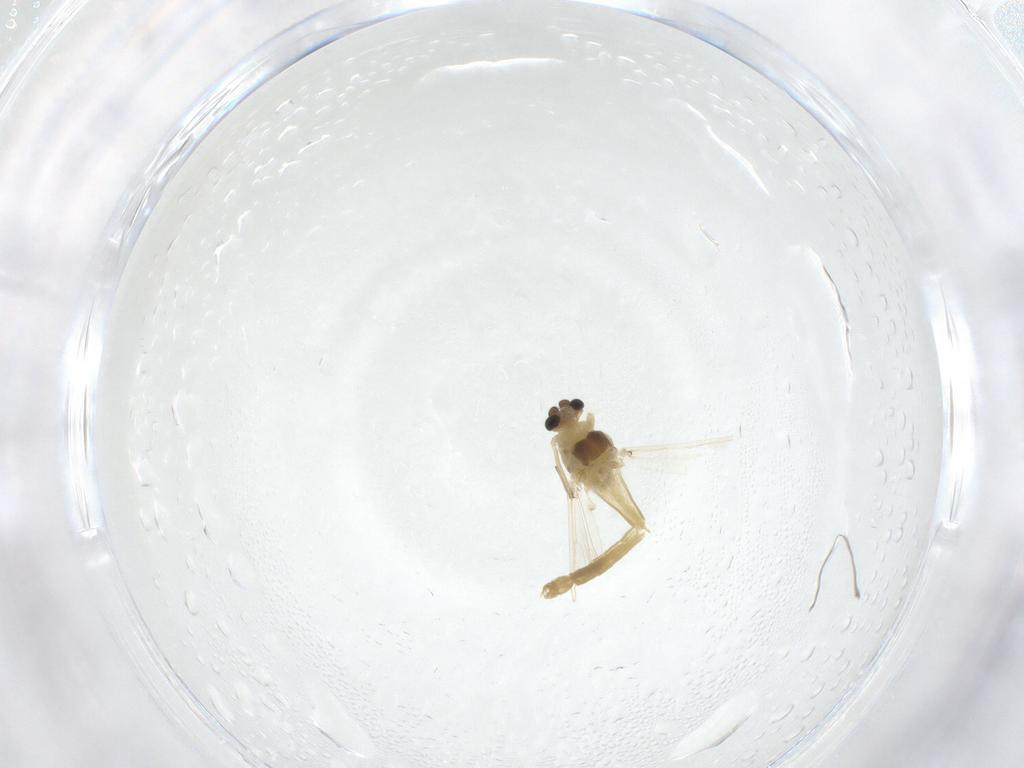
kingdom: Animalia
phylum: Arthropoda
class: Insecta
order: Diptera
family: Chironomidae
